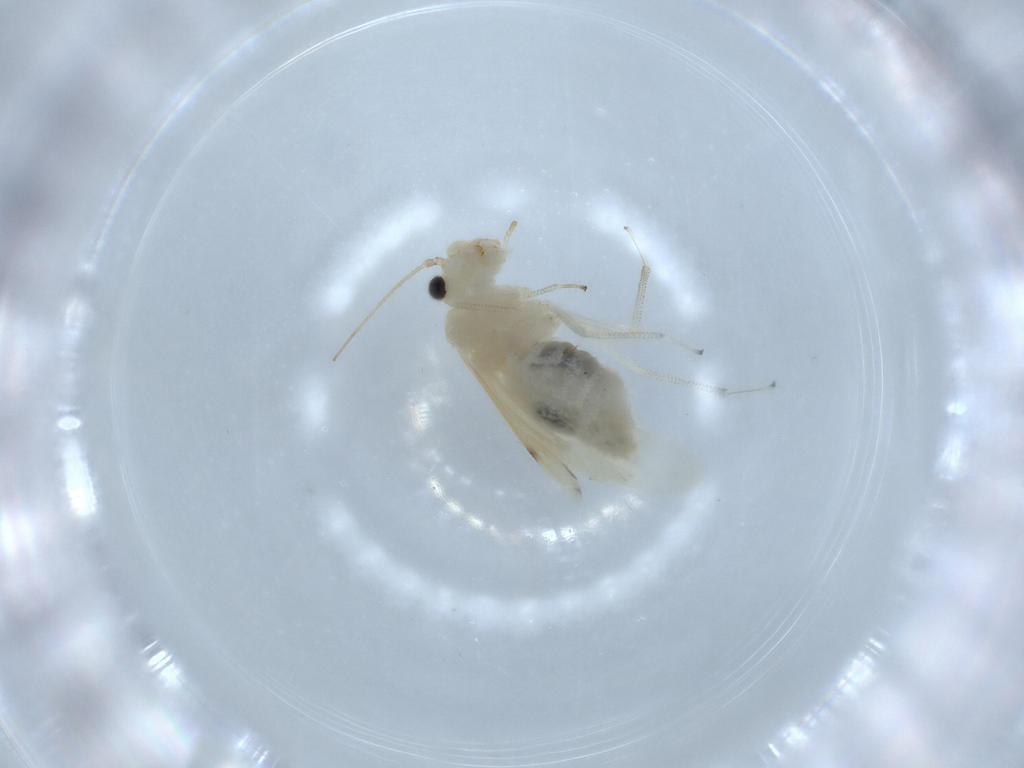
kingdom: Animalia
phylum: Arthropoda
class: Insecta
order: Psocodea
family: Caeciliusidae
